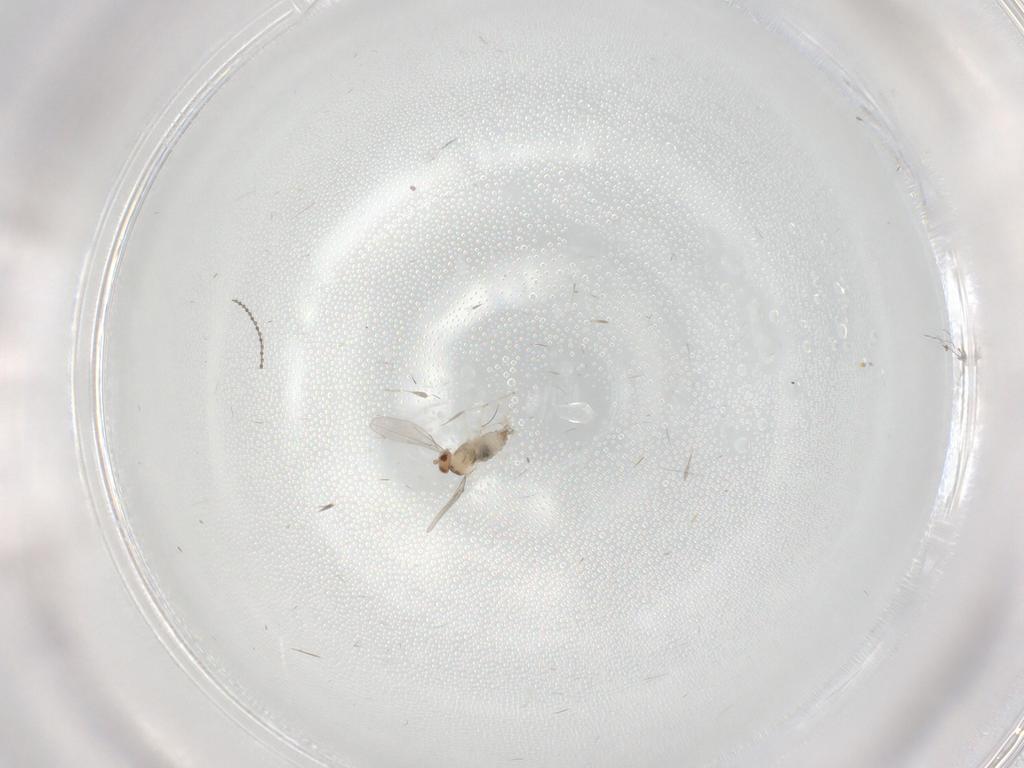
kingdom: Animalia
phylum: Arthropoda
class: Insecta
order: Diptera
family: Cecidomyiidae
